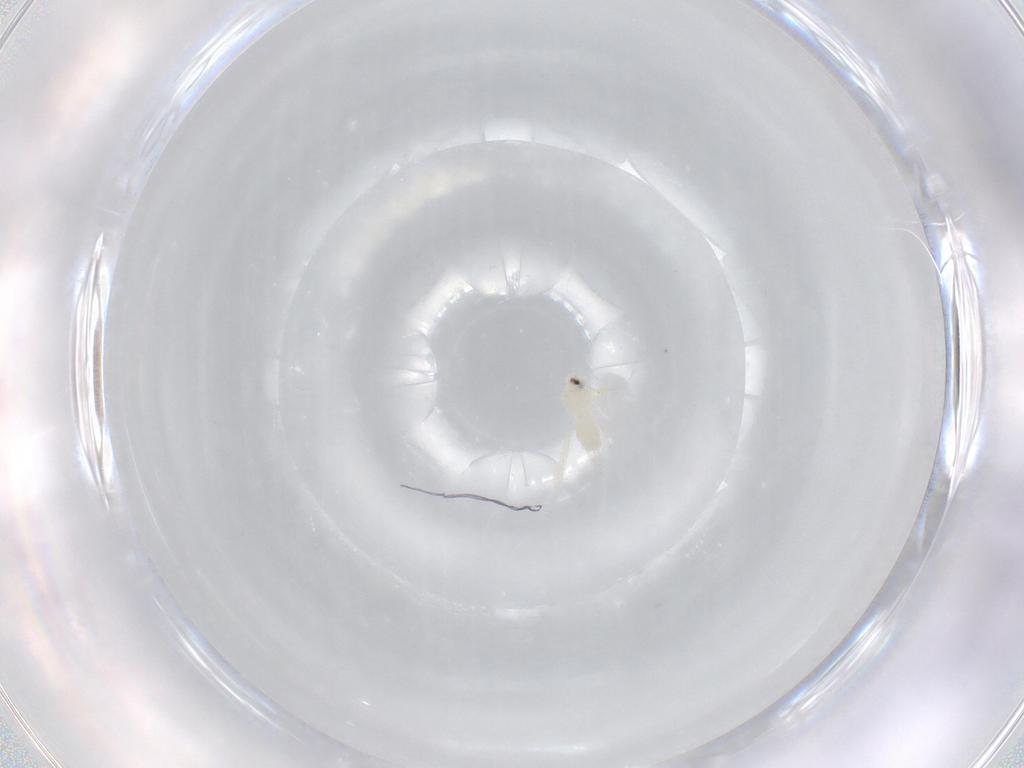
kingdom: Animalia
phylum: Arthropoda
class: Insecta
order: Hemiptera
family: Aleyrodidae
